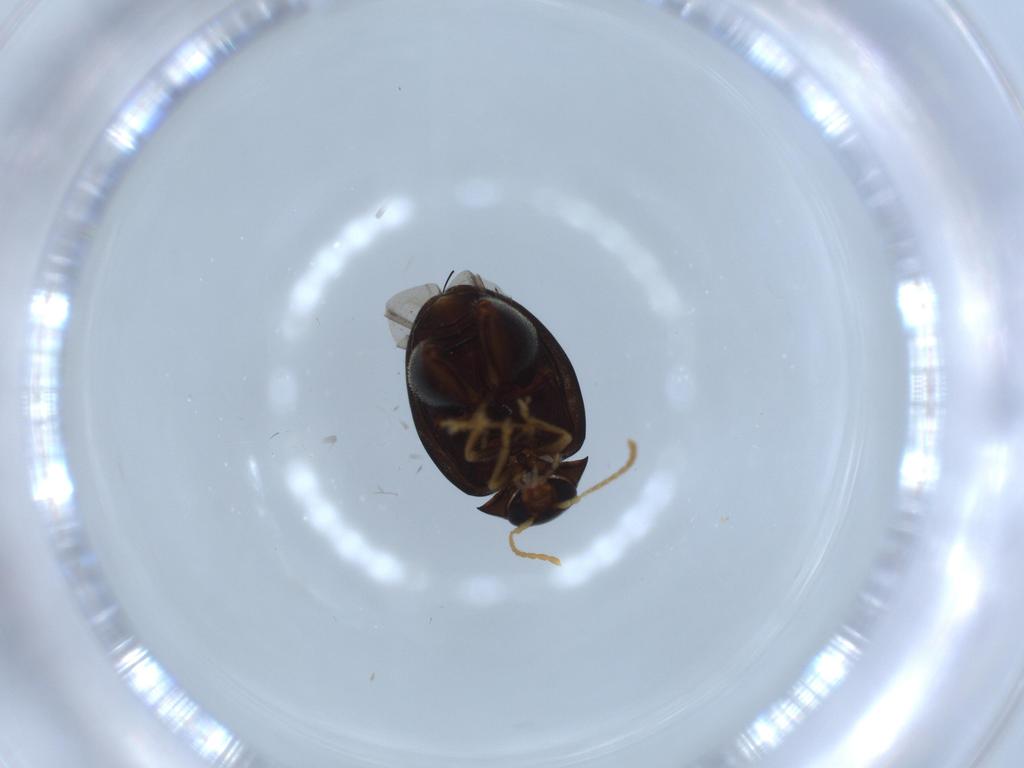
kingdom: Animalia
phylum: Arthropoda
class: Insecta
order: Coleoptera
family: Chrysomelidae
